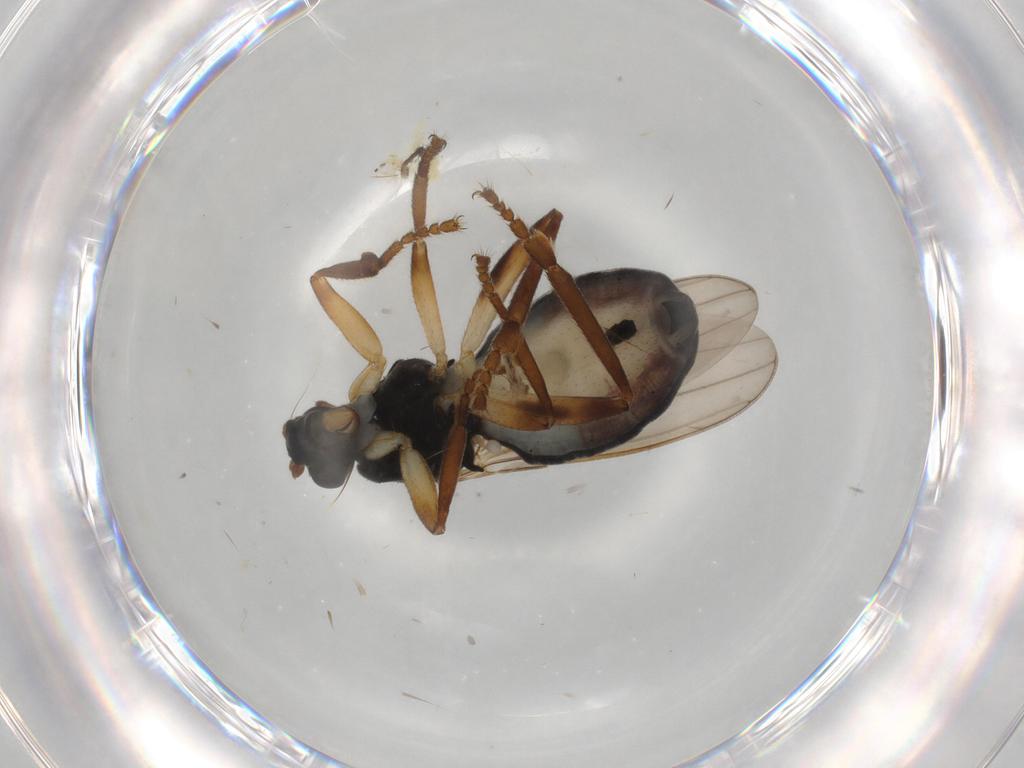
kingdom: Animalia
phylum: Arthropoda
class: Insecta
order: Diptera
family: Sphaeroceridae
